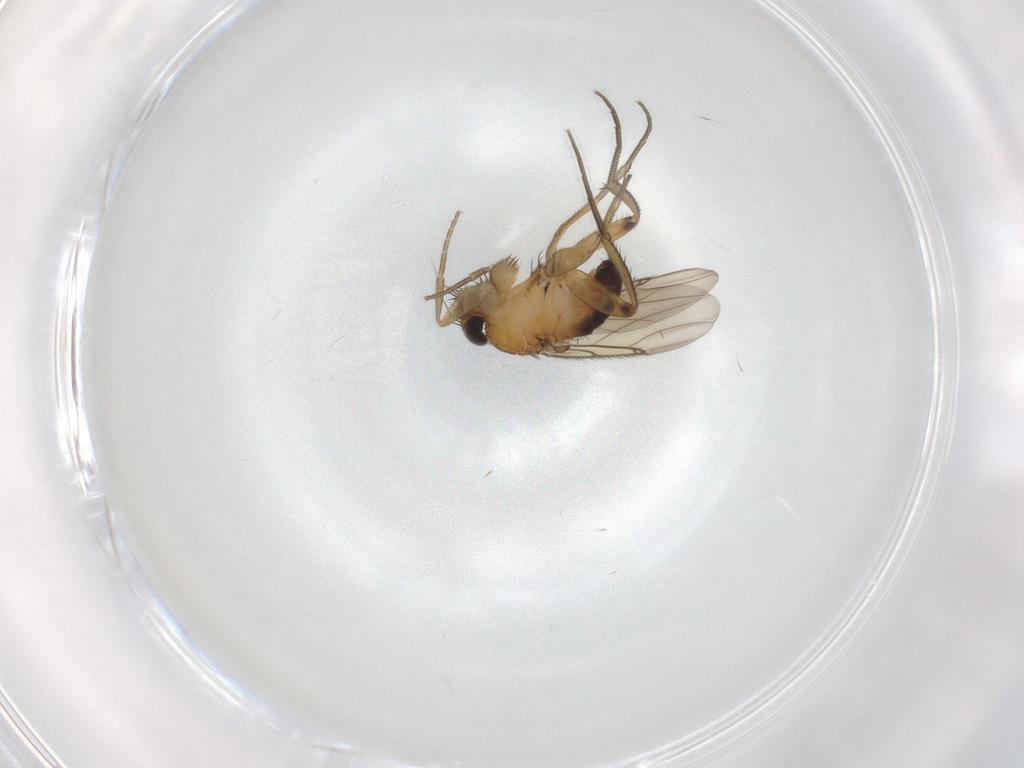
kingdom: Animalia
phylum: Arthropoda
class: Insecta
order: Diptera
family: Phoridae
